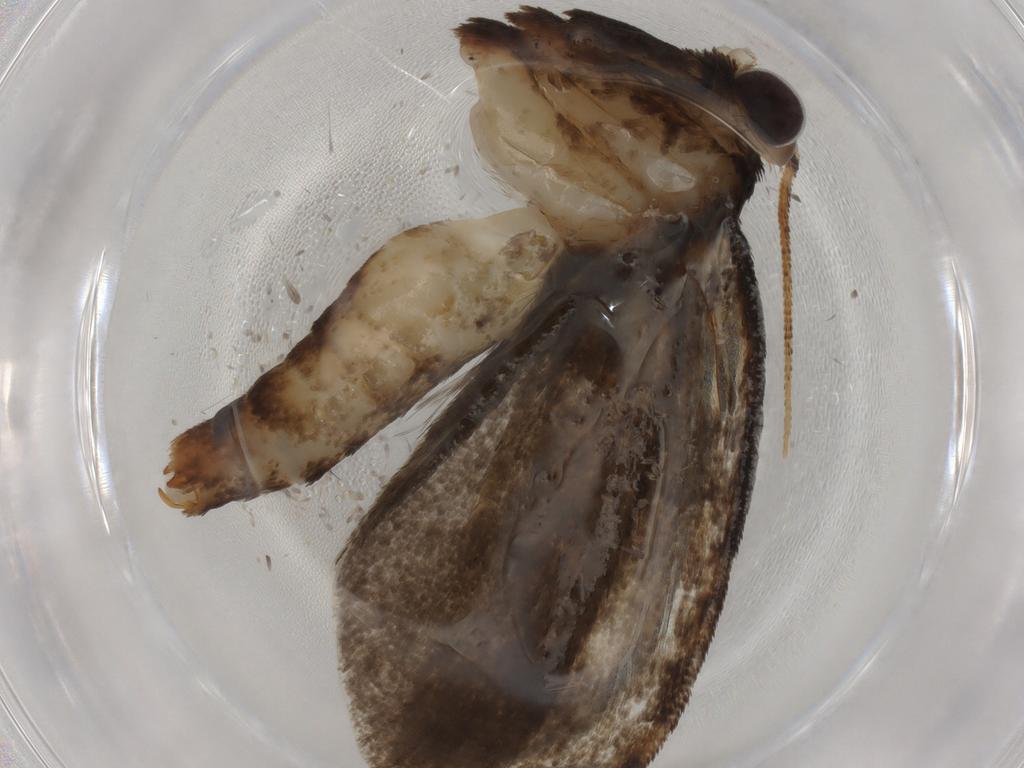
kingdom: Animalia
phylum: Arthropoda
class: Insecta
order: Lepidoptera
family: Tineidae
